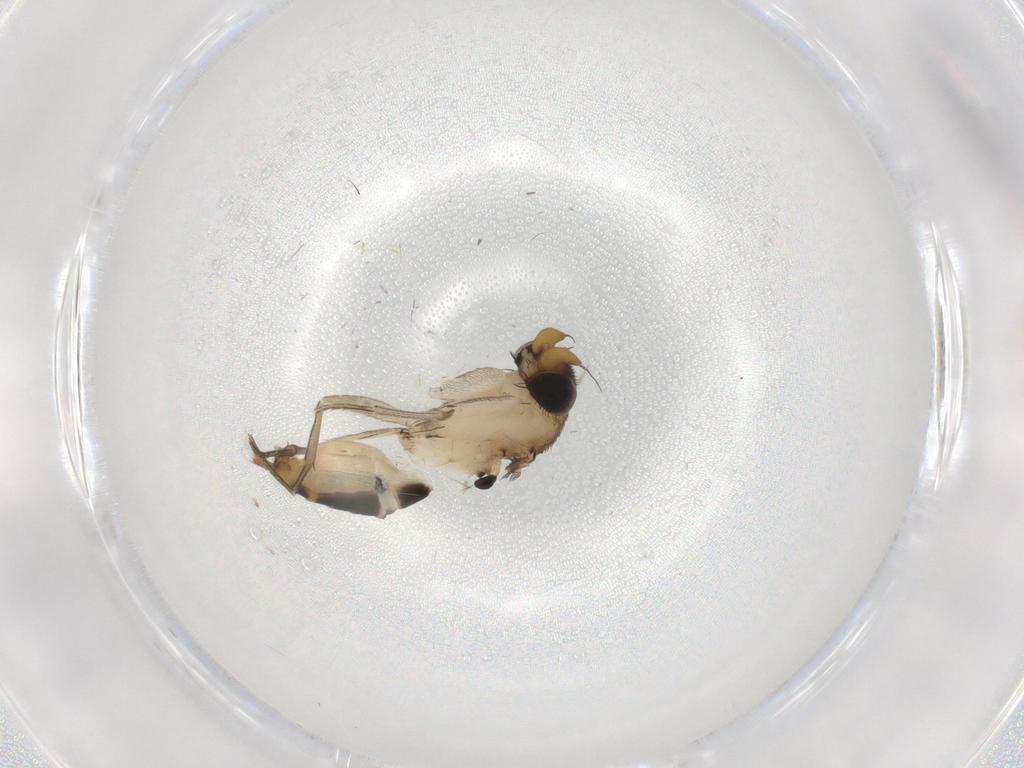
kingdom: Animalia
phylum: Arthropoda
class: Insecta
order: Diptera
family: Phoridae
